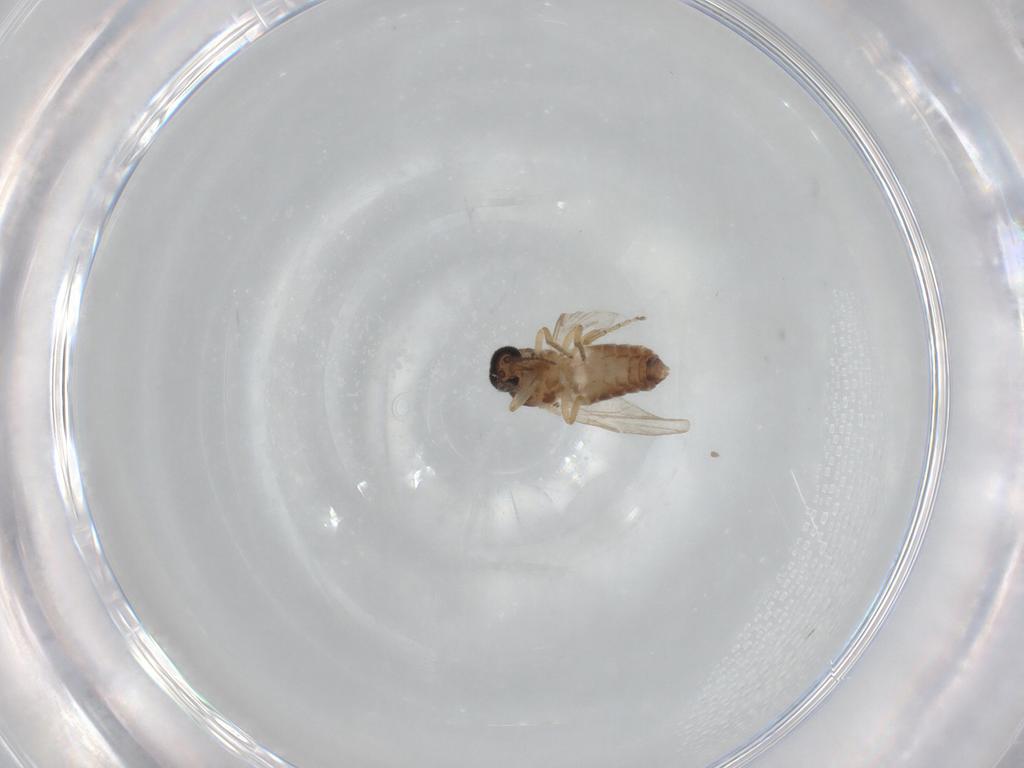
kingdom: Animalia
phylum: Arthropoda
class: Insecta
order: Diptera
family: Ceratopogonidae
